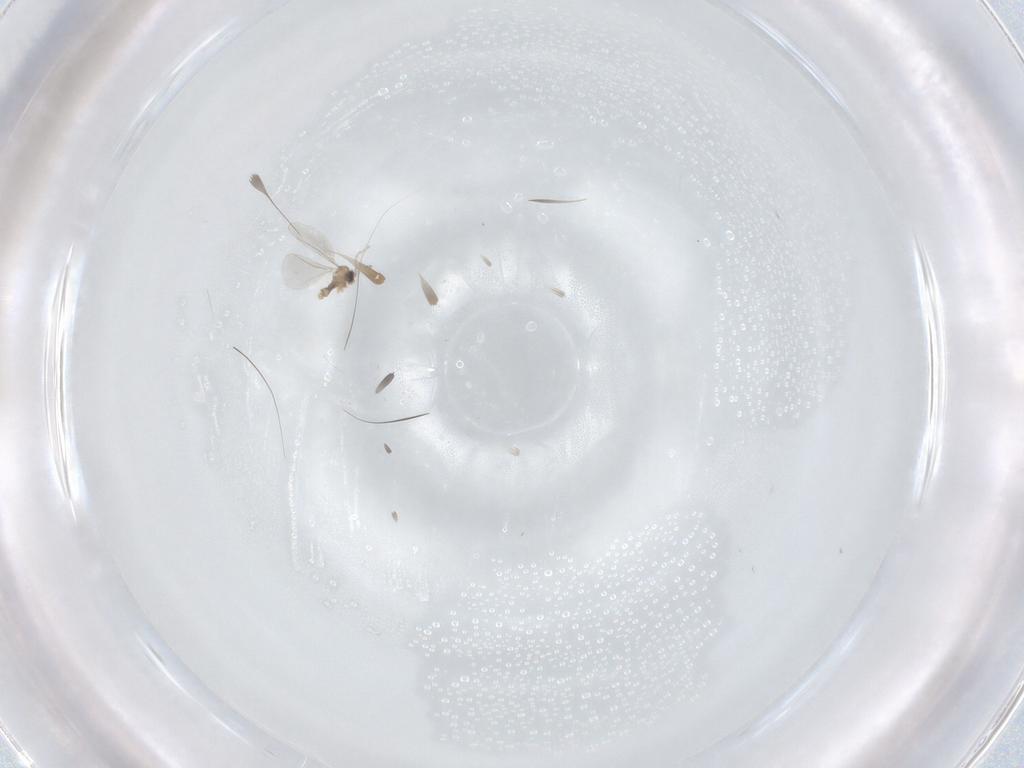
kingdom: Animalia
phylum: Arthropoda
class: Insecta
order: Diptera
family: Cecidomyiidae
